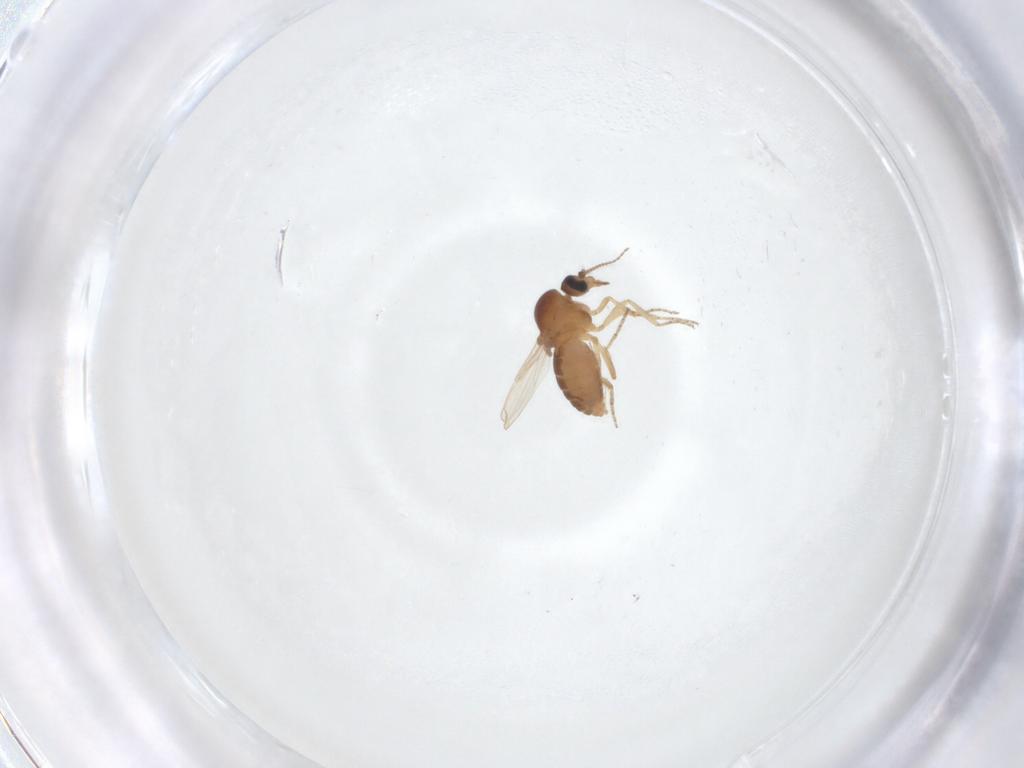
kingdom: Animalia
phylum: Arthropoda
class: Insecta
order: Diptera
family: Ceratopogonidae
